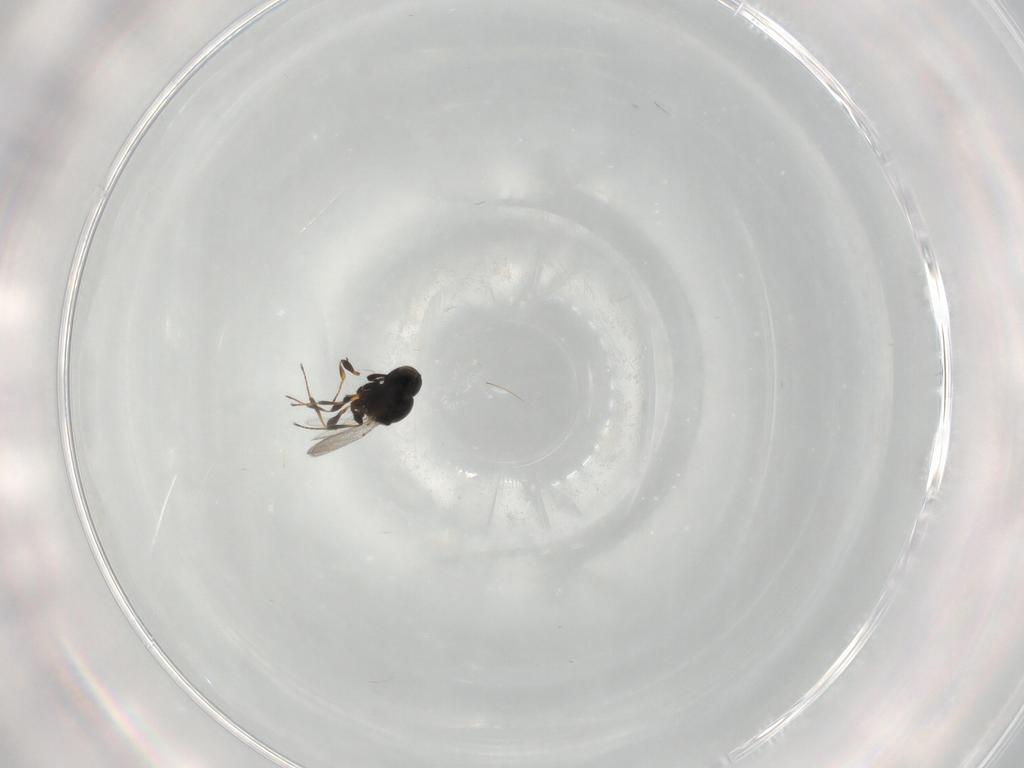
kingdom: Animalia
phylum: Arthropoda
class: Insecta
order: Hymenoptera
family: Platygastridae
